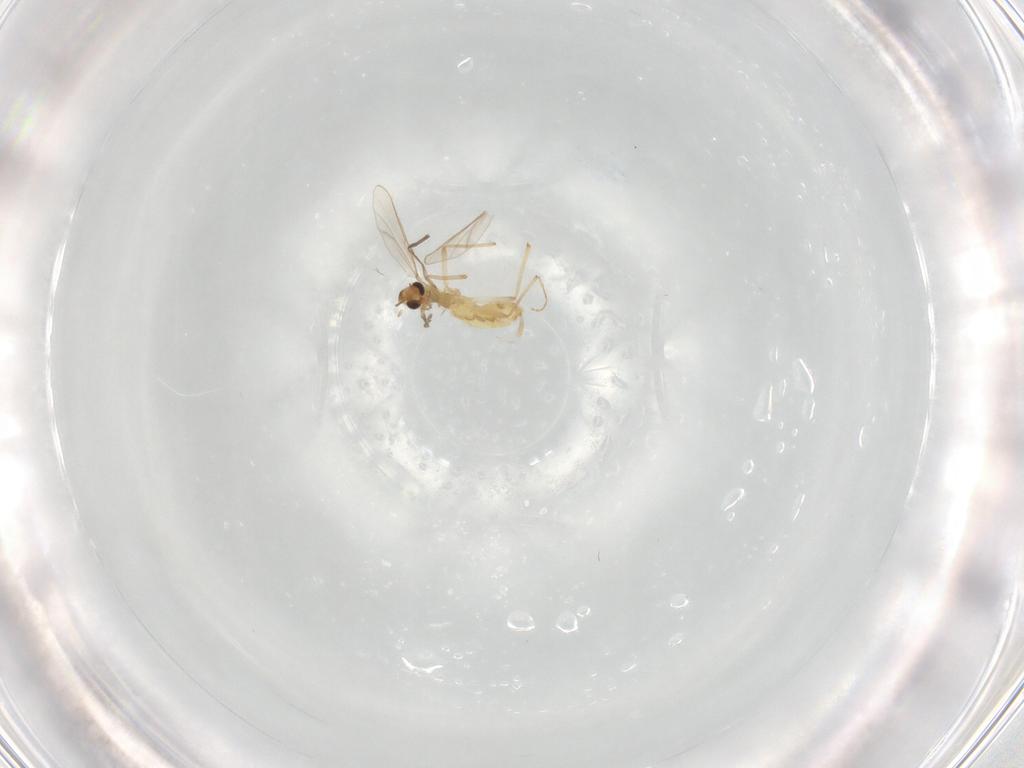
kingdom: Animalia
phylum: Arthropoda
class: Insecta
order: Diptera
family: Chironomidae
